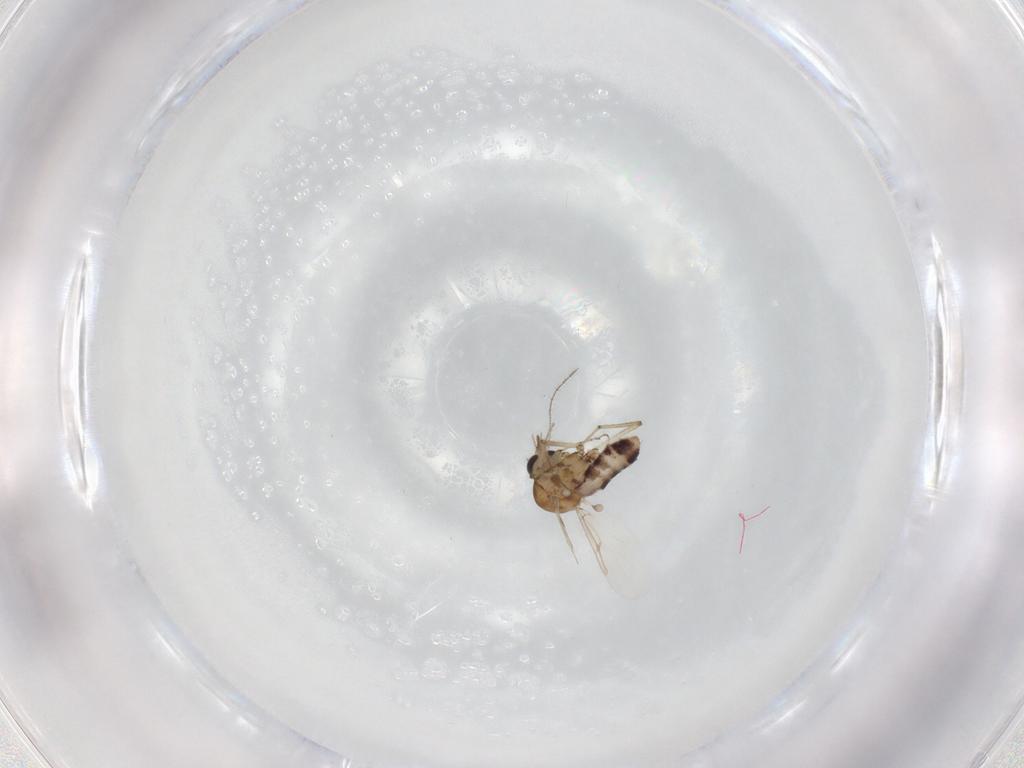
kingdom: Animalia
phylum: Arthropoda
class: Insecta
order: Diptera
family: Ceratopogonidae
